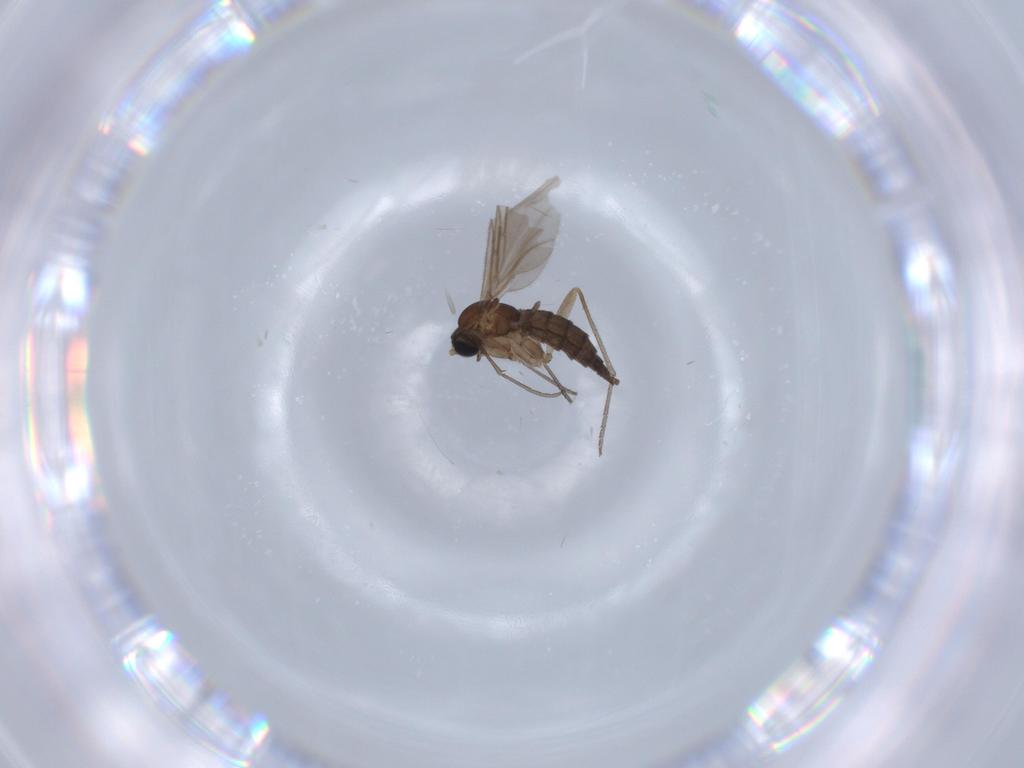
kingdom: Animalia
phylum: Arthropoda
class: Insecta
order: Diptera
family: Sciaridae
